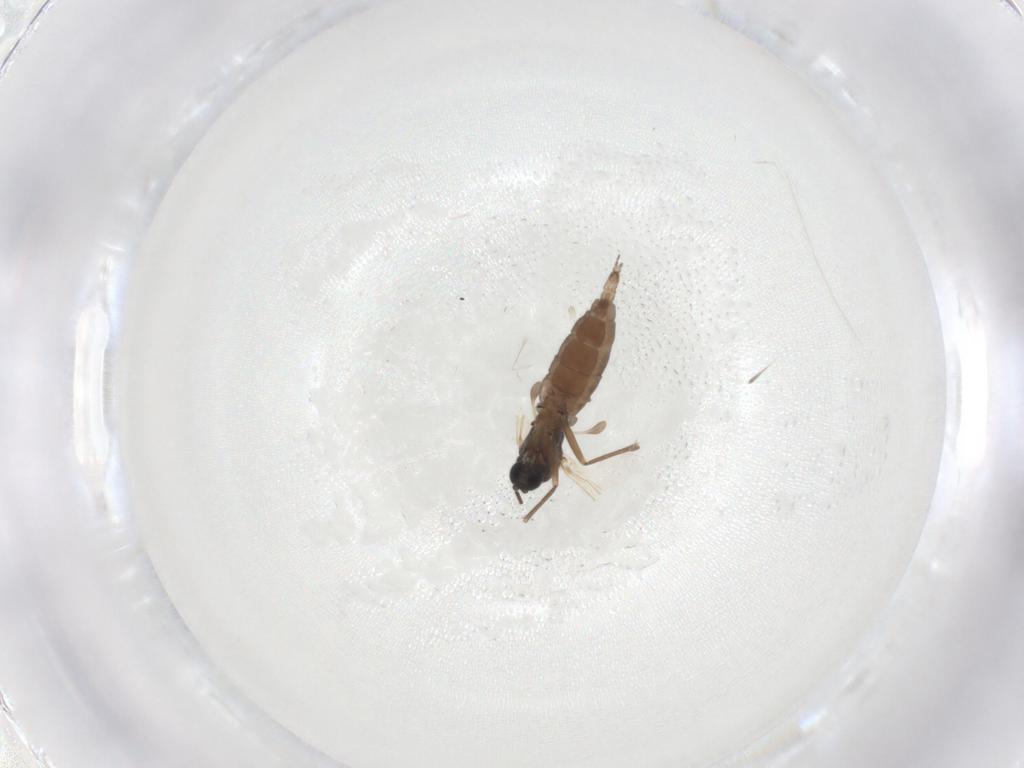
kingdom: Animalia
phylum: Arthropoda
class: Insecta
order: Diptera
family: Sciaridae
